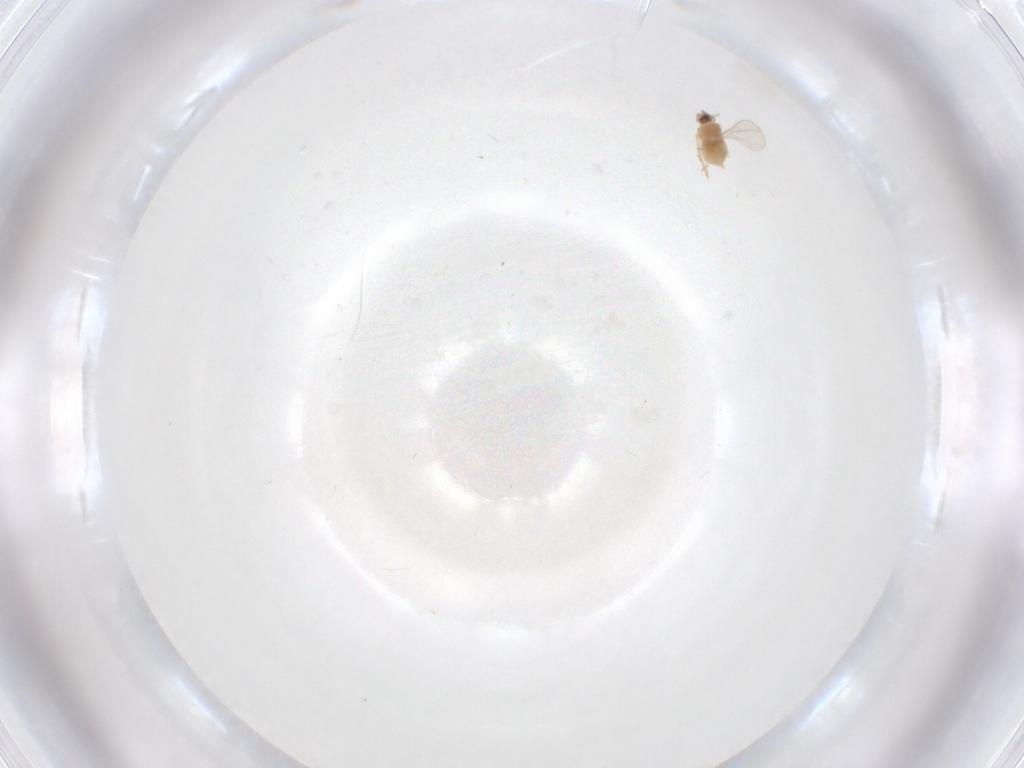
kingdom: Animalia
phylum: Arthropoda
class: Insecta
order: Diptera
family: Cecidomyiidae
